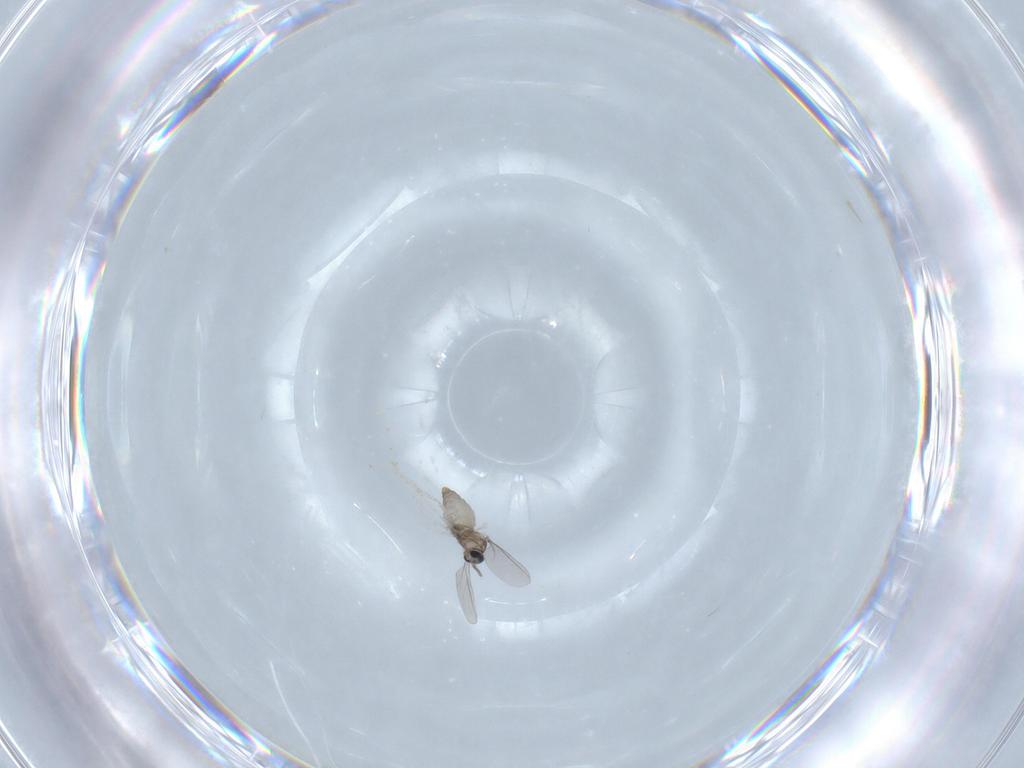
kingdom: Animalia
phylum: Arthropoda
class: Insecta
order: Diptera
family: Cecidomyiidae
